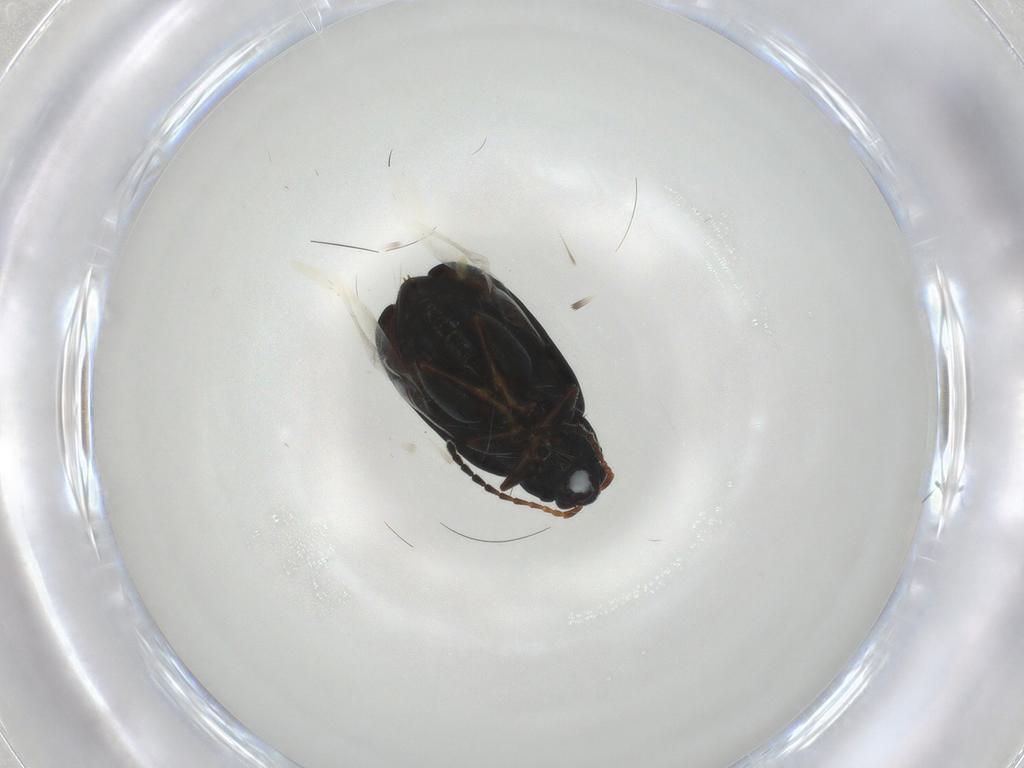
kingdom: Animalia
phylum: Arthropoda
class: Insecta
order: Coleoptera
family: Chrysomelidae
